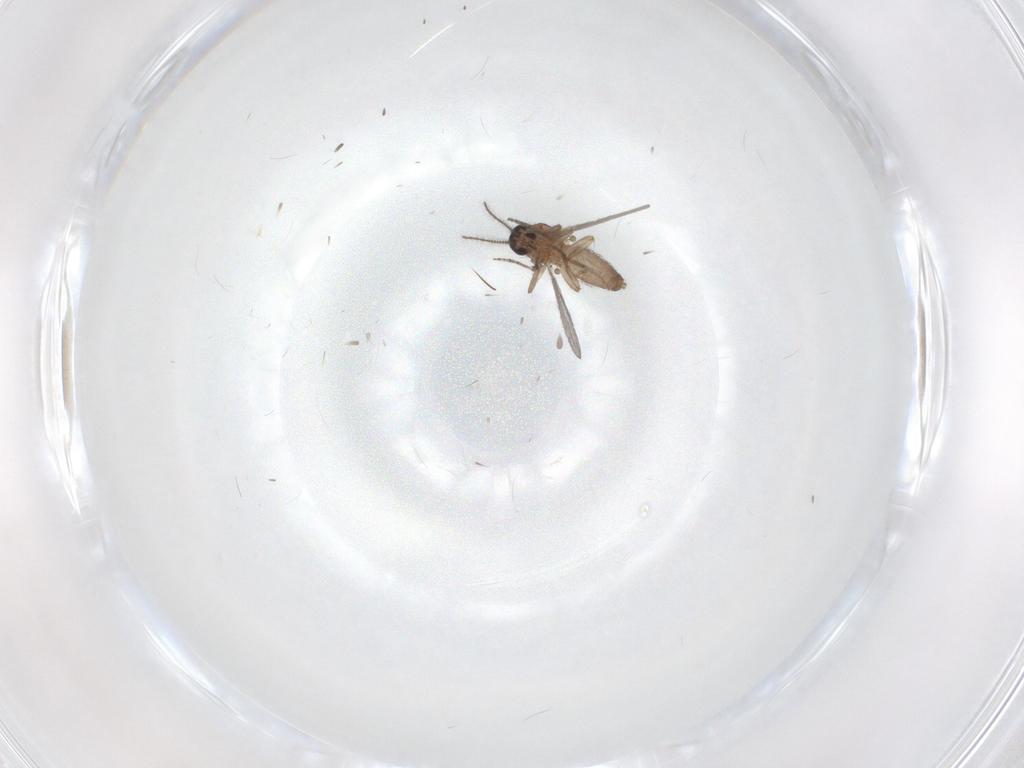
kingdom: Animalia
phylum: Arthropoda
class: Insecta
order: Diptera
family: Chironomidae
